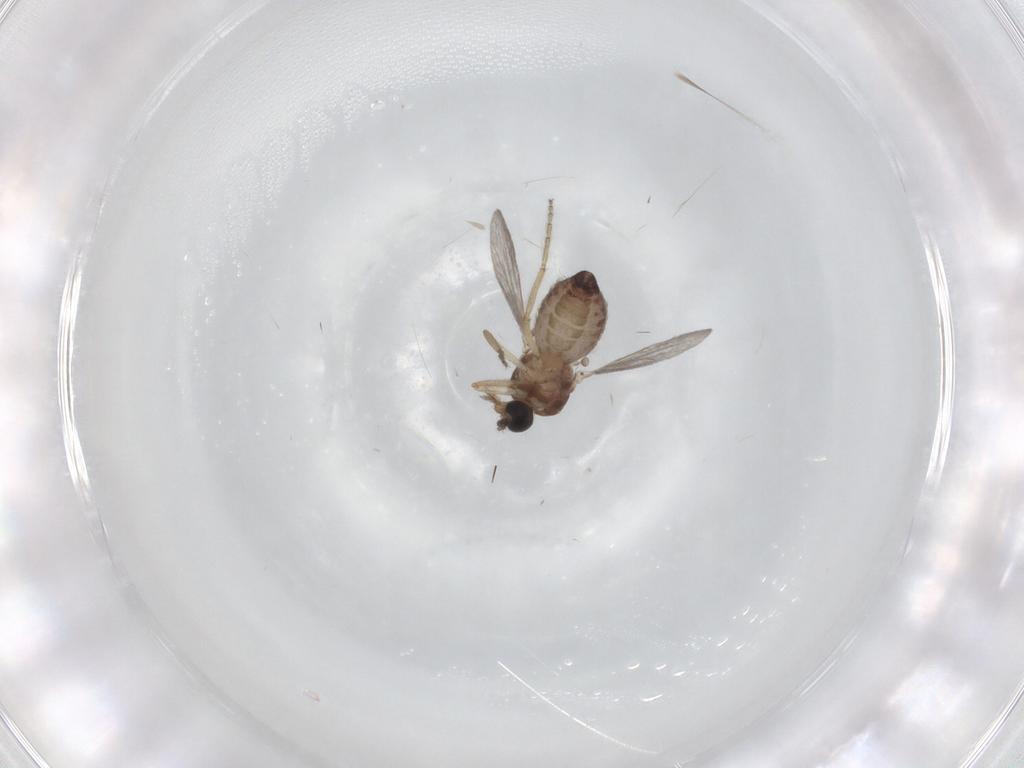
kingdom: Animalia
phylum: Arthropoda
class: Insecta
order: Diptera
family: Ceratopogonidae
